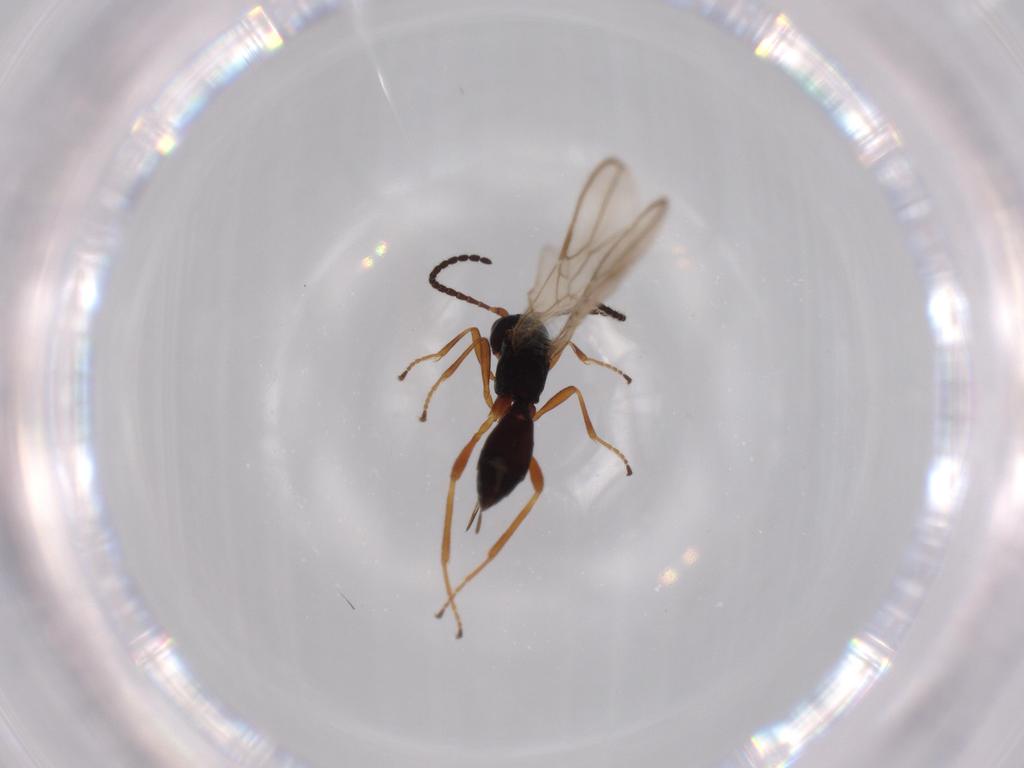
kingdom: Animalia
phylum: Arthropoda
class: Insecta
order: Hymenoptera
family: Braconidae
